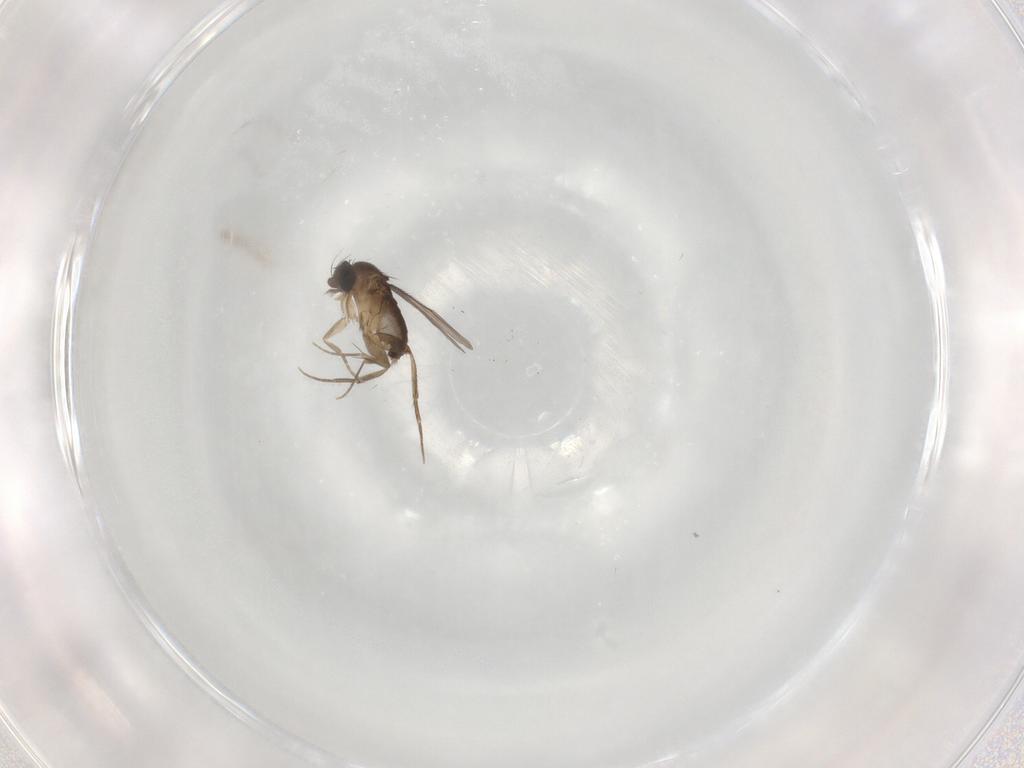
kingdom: Animalia
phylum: Arthropoda
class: Insecta
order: Diptera
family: Phoridae
